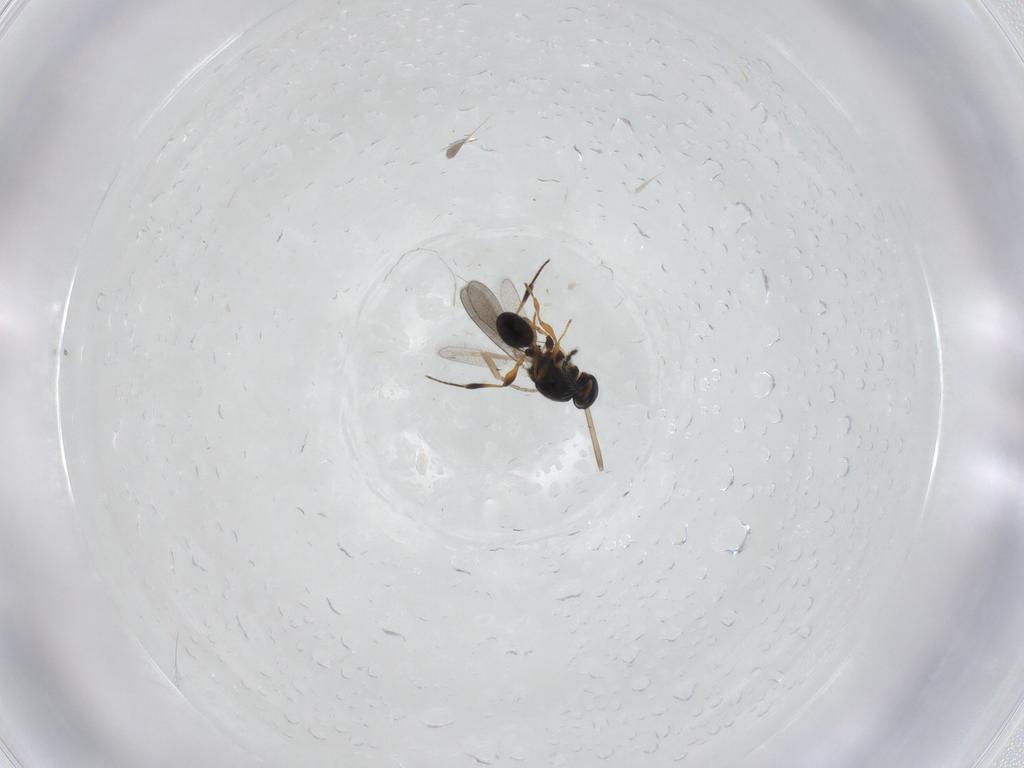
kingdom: Animalia
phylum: Arthropoda
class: Insecta
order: Hymenoptera
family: Platygastridae
